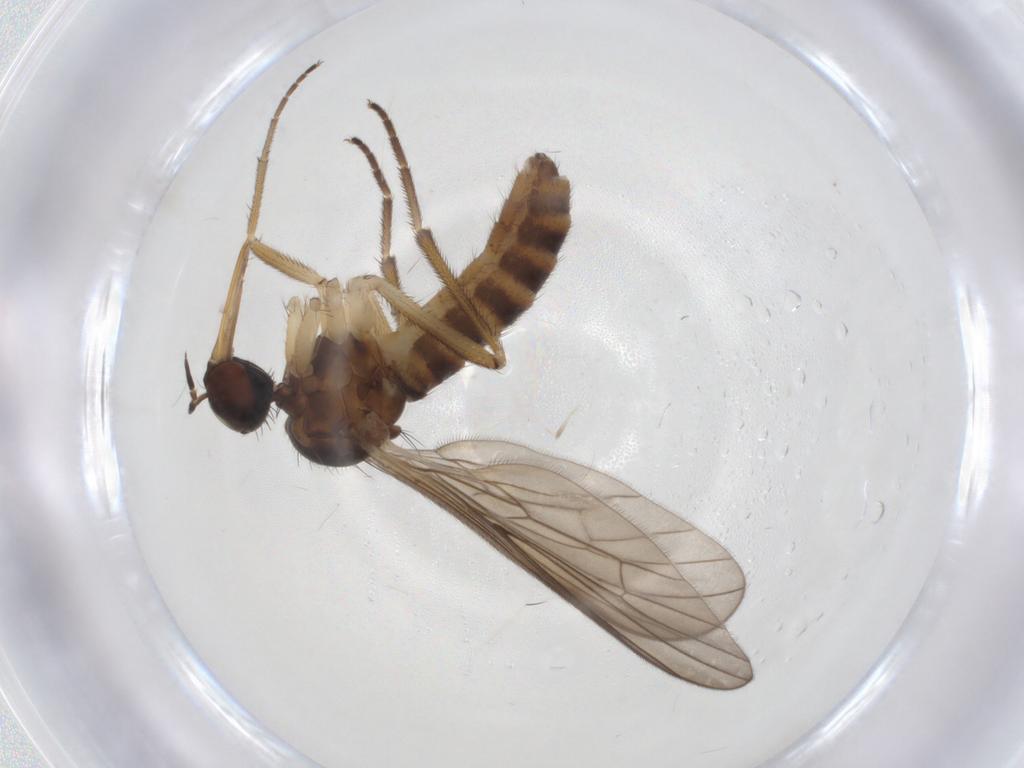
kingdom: Animalia
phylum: Arthropoda
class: Insecta
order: Diptera
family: Empididae
